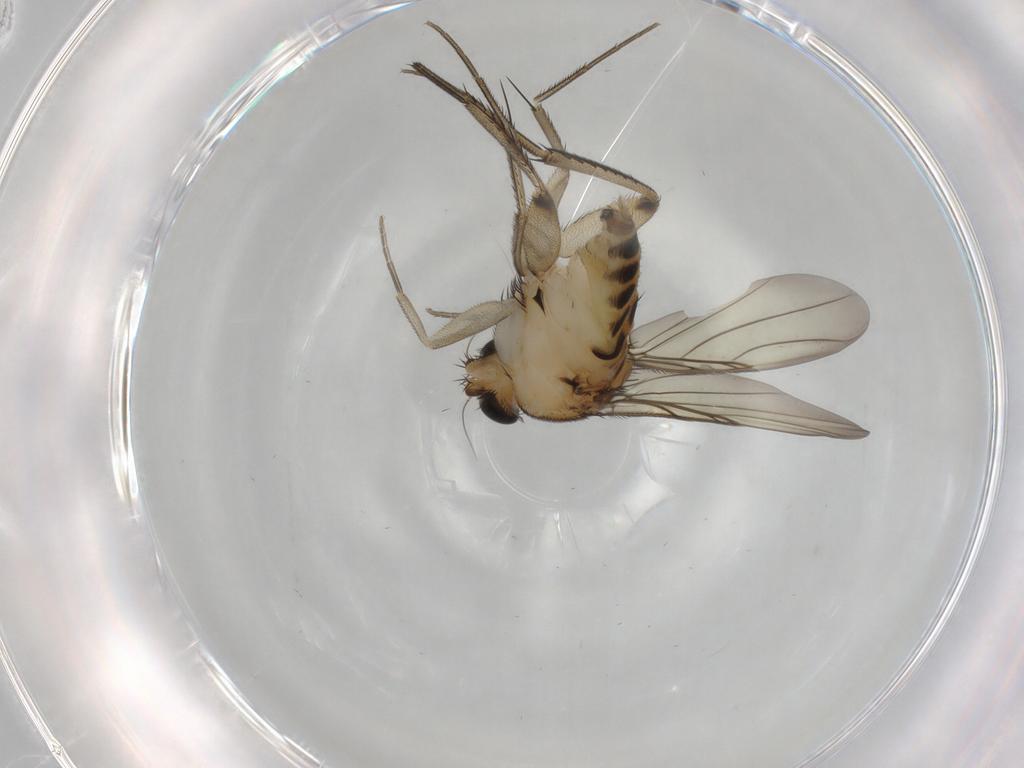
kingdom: Animalia
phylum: Arthropoda
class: Insecta
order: Diptera
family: Phoridae
